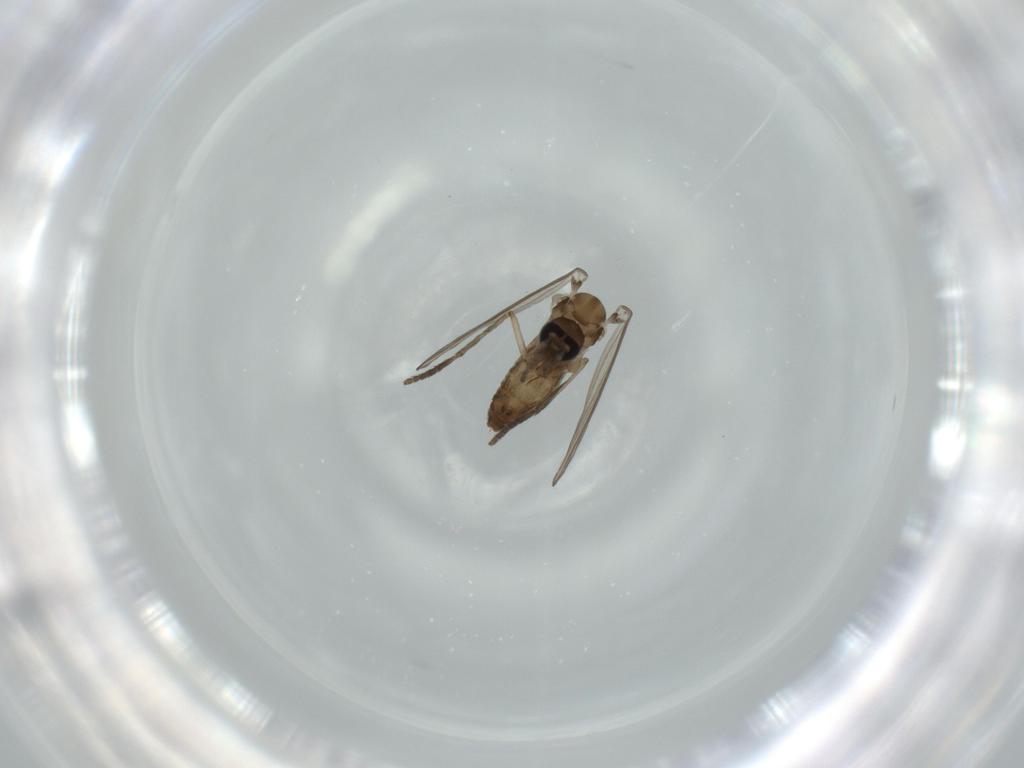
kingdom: Animalia
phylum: Arthropoda
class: Insecta
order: Diptera
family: Psychodidae
